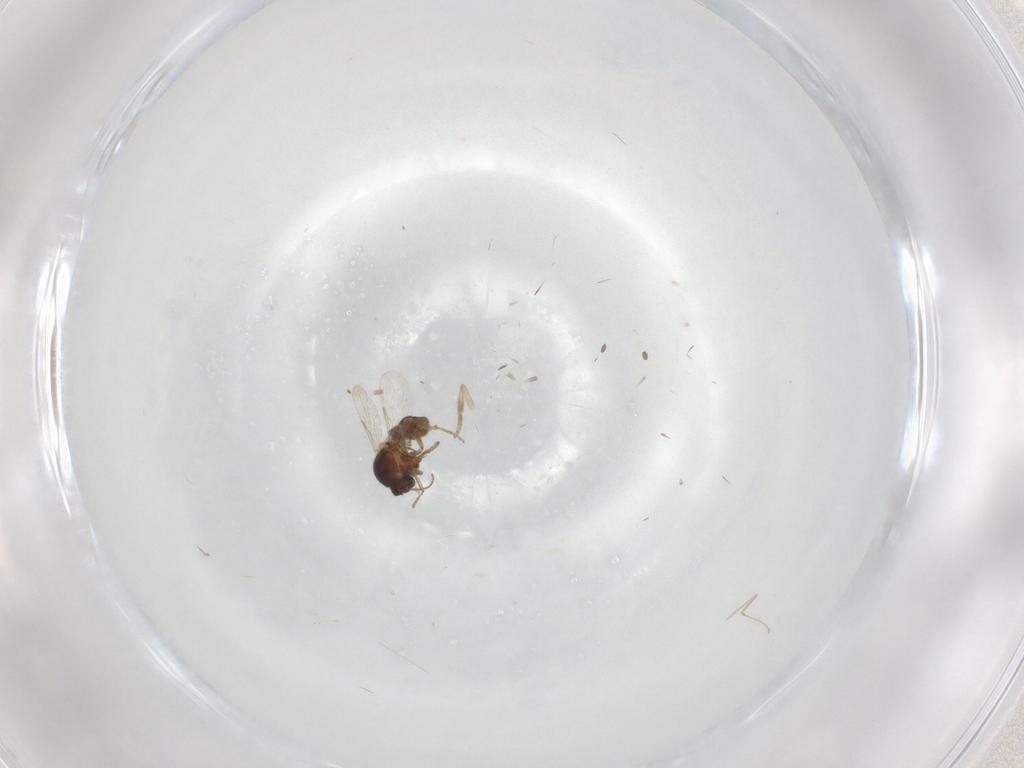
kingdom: Animalia
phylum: Arthropoda
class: Insecta
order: Diptera
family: Ceratopogonidae
